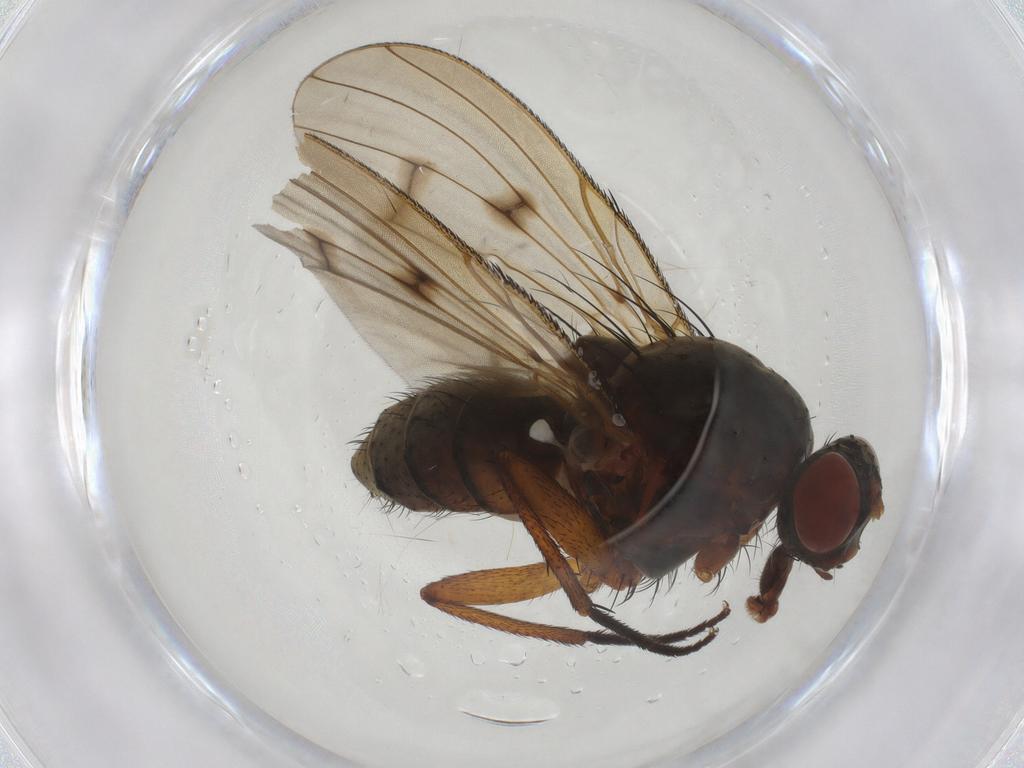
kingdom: Animalia
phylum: Arthropoda
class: Insecta
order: Diptera
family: Anthomyiidae
